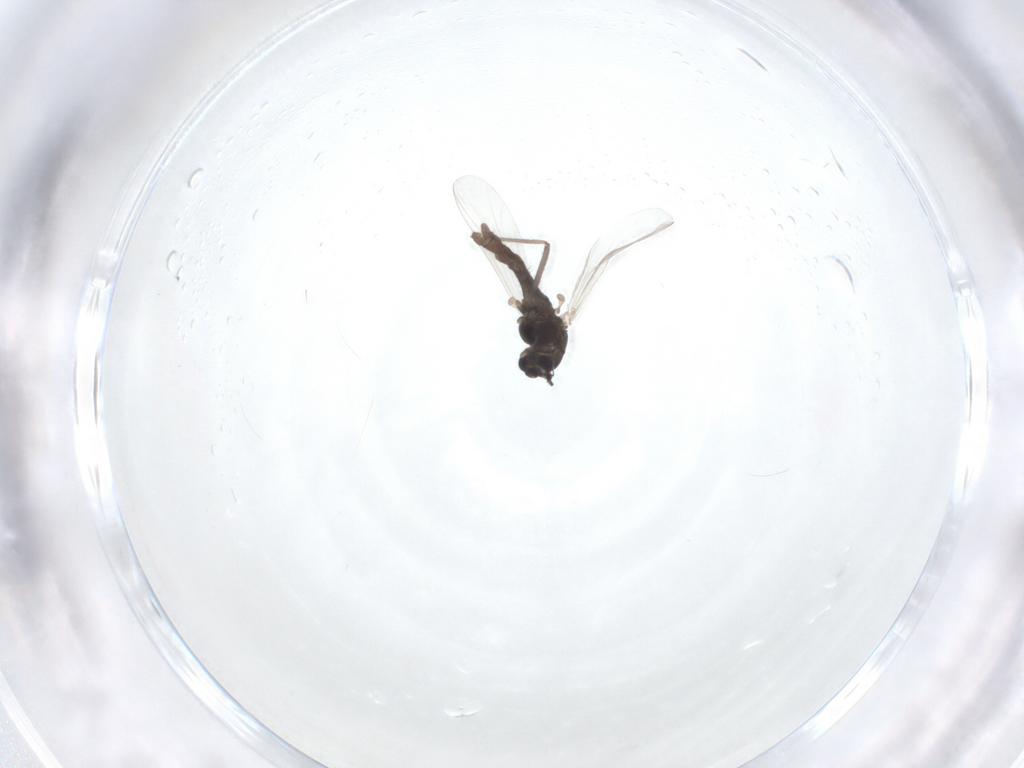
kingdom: Animalia
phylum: Arthropoda
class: Insecta
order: Diptera
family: Chironomidae
